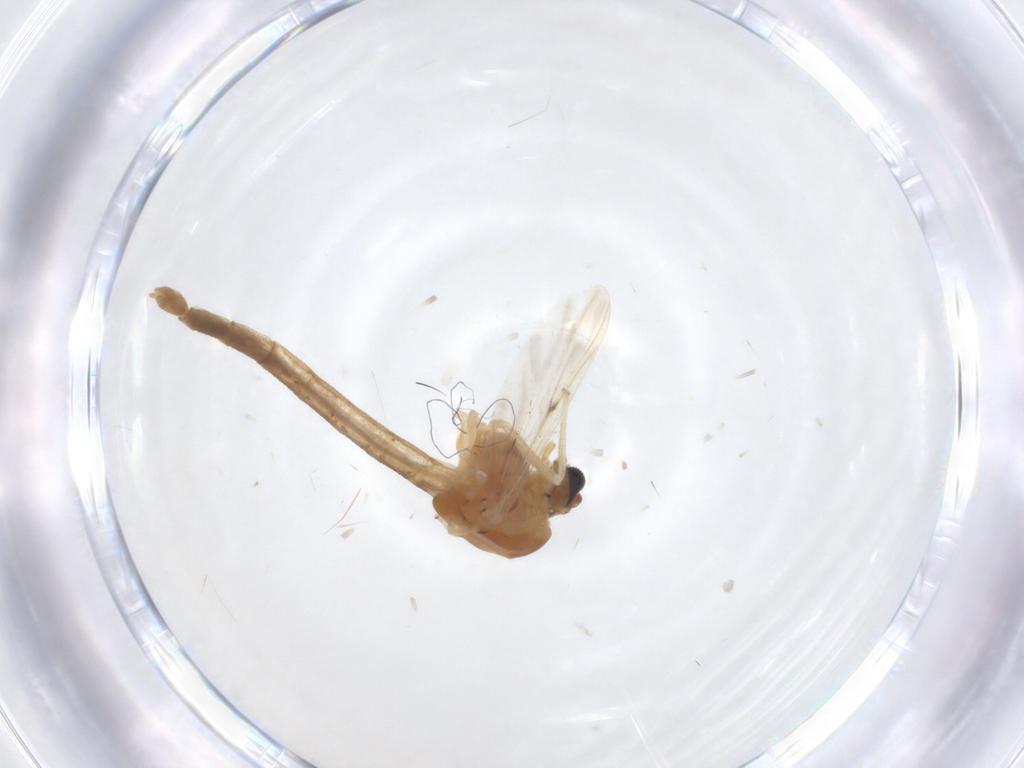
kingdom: Animalia
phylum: Arthropoda
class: Insecta
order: Diptera
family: Chironomidae
